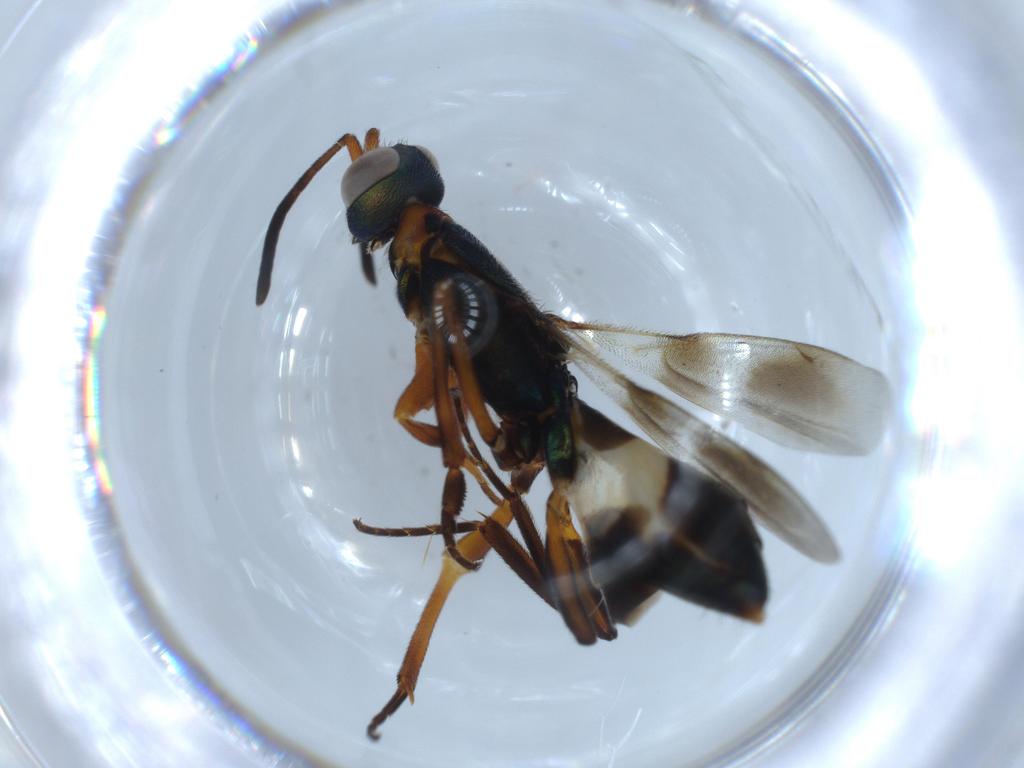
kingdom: Animalia
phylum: Arthropoda
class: Insecta
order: Hymenoptera
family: Eupelmidae
